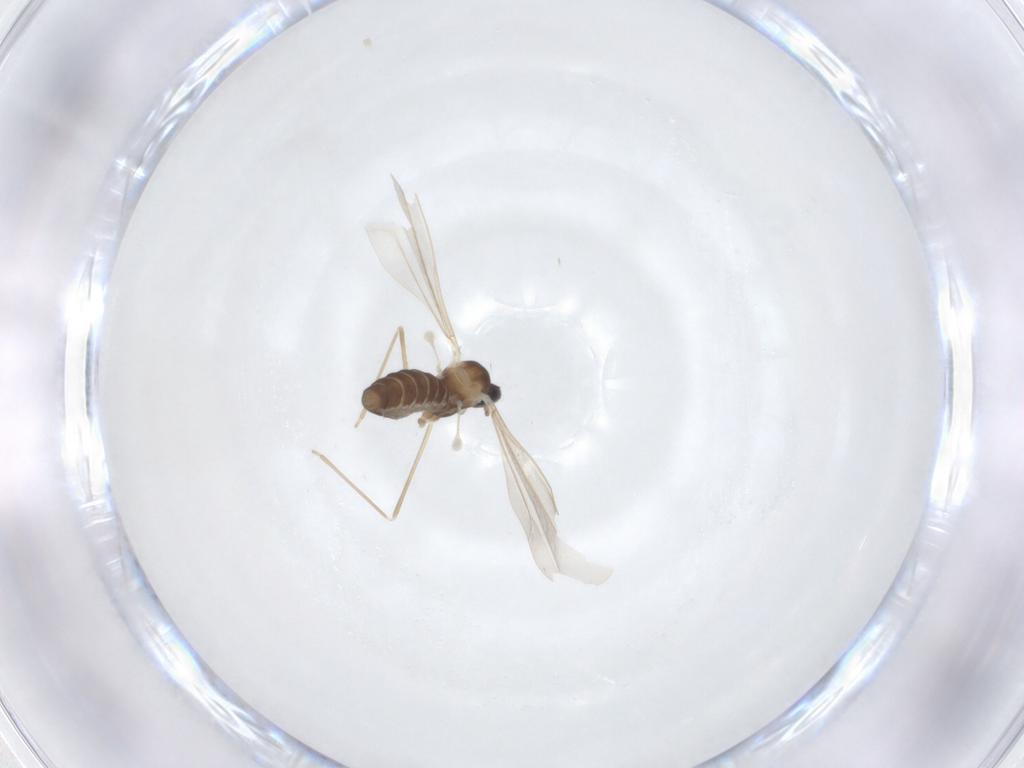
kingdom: Animalia
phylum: Arthropoda
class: Insecta
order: Diptera
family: Cecidomyiidae
